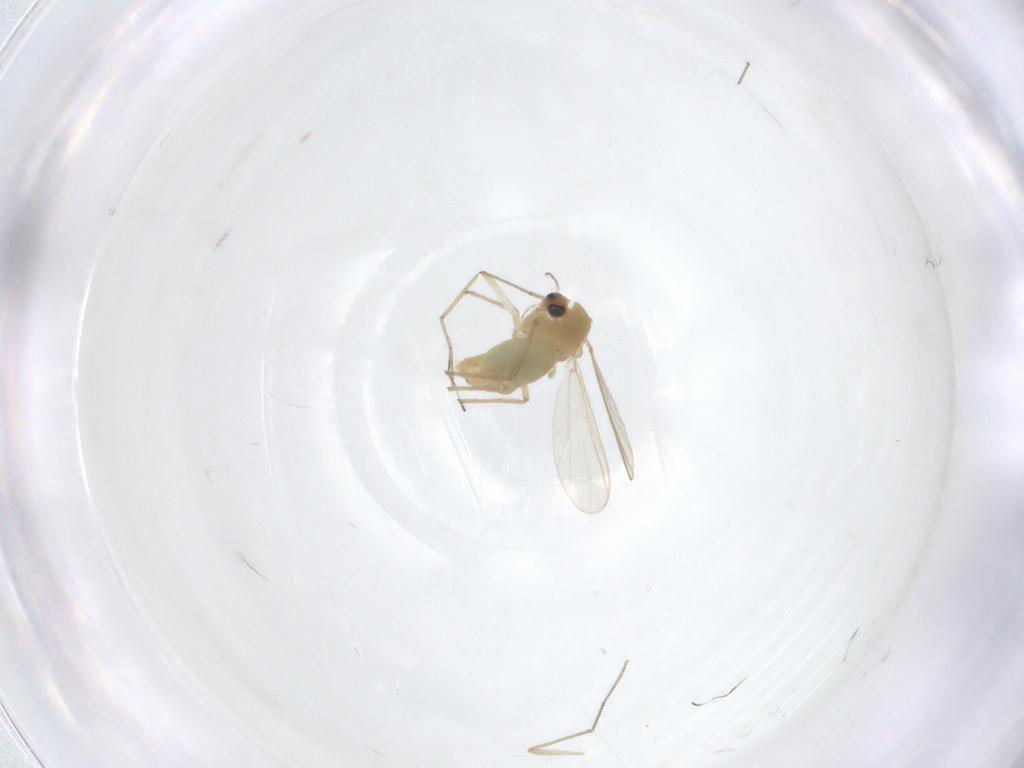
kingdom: Animalia
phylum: Arthropoda
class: Insecta
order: Diptera
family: Chironomidae
